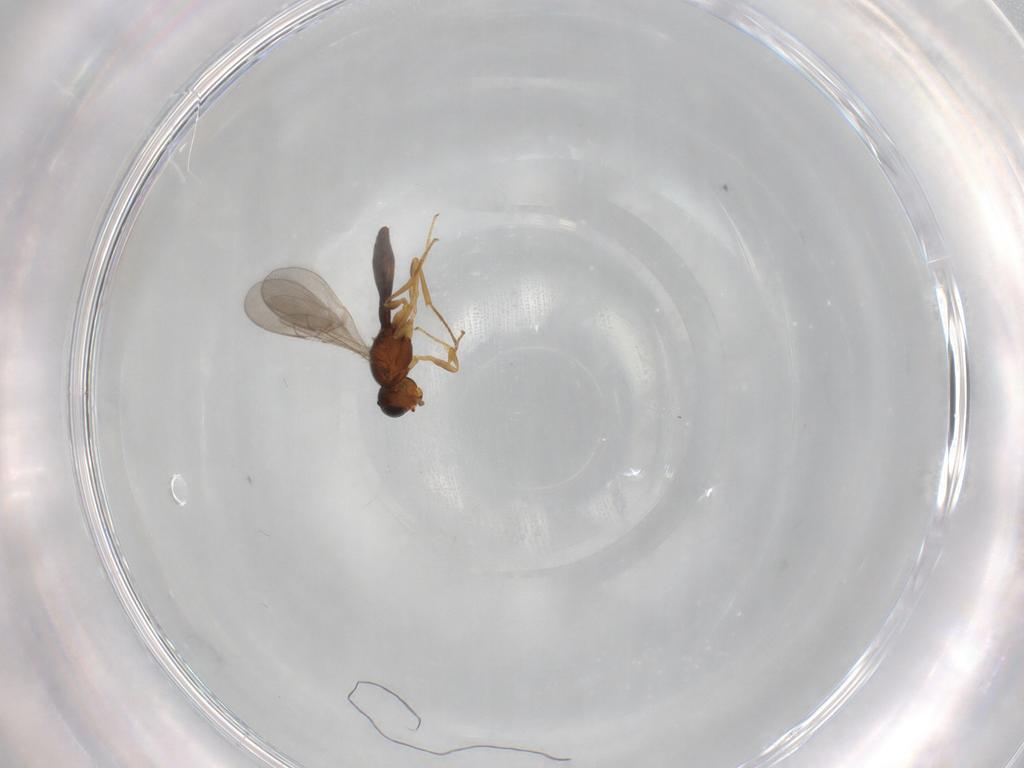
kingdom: Animalia
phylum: Arthropoda
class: Insecta
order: Hymenoptera
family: Scelionidae
